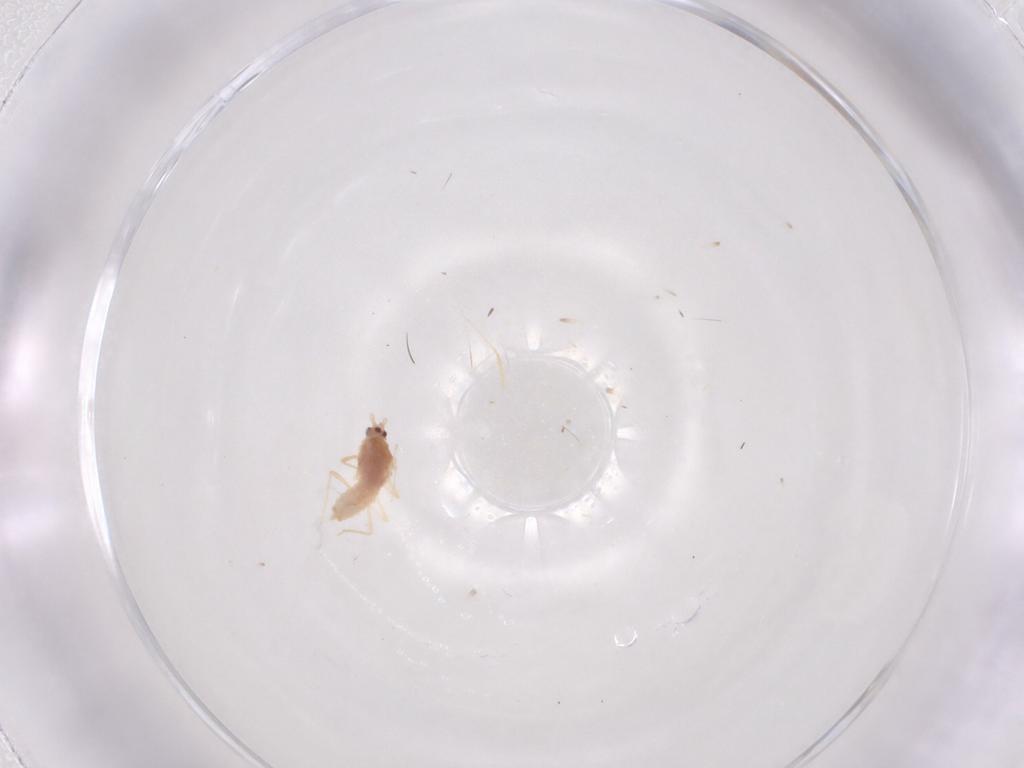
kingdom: Animalia
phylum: Arthropoda
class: Insecta
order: Diptera
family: Cecidomyiidae
